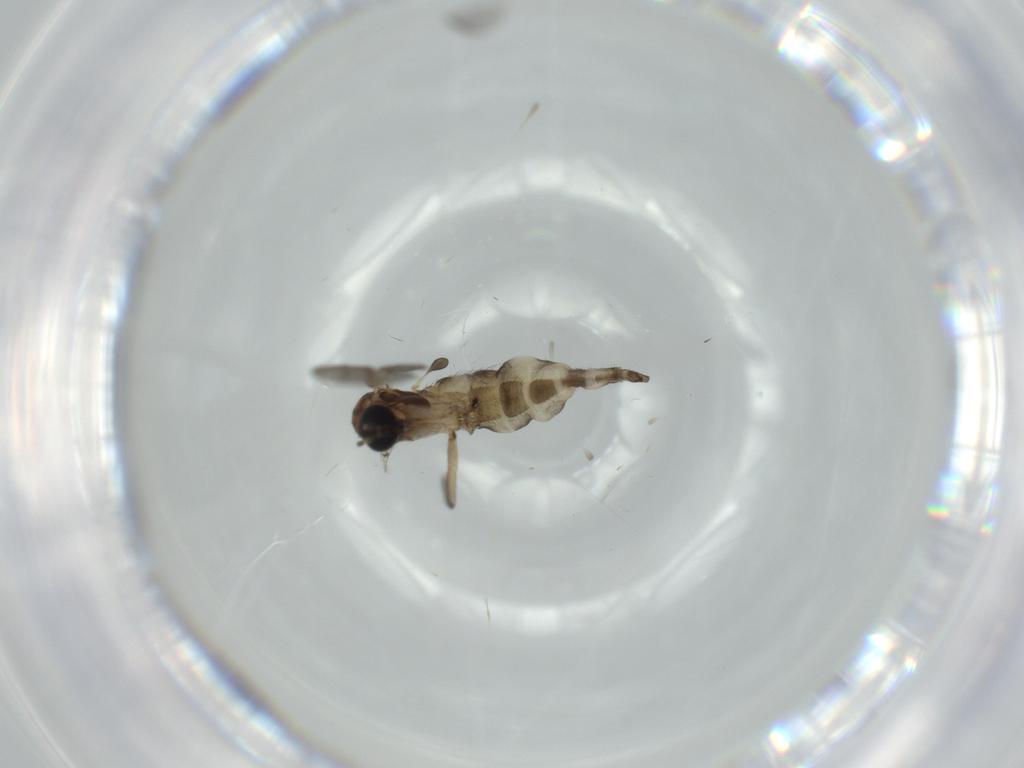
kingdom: Animalia
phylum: Arthropoda
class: Insecta
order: Diptera
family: Sciaridae
